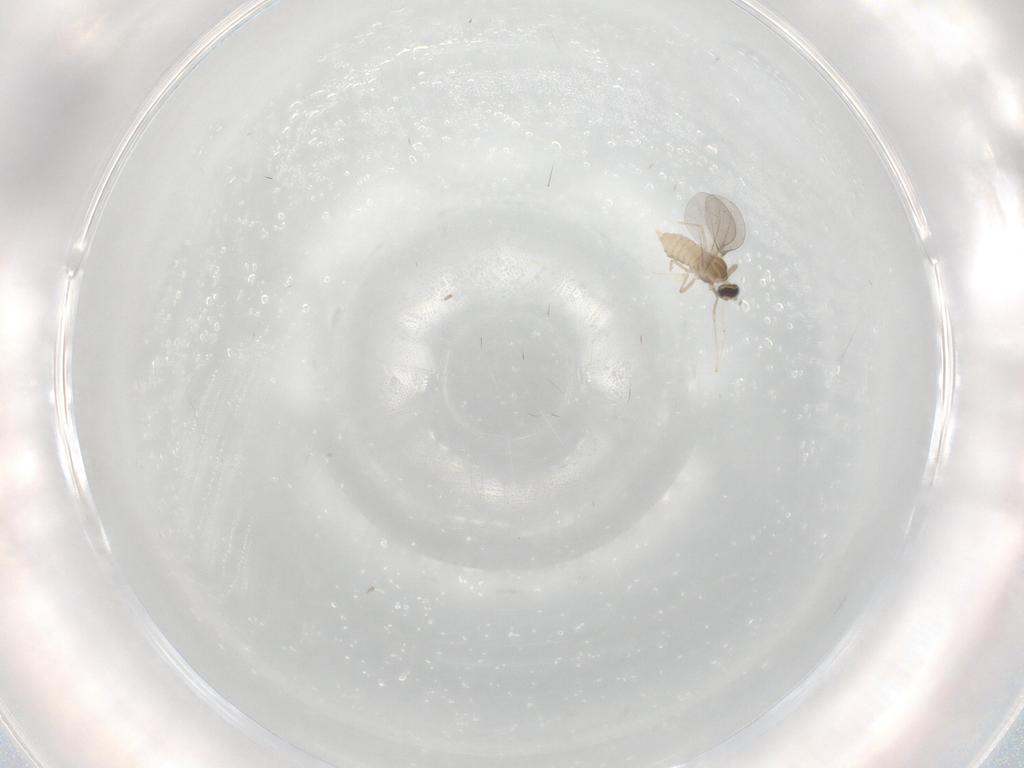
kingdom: Animalia
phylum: Arthropoda
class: Insecta
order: Diptera
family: Cecidomyiidae
